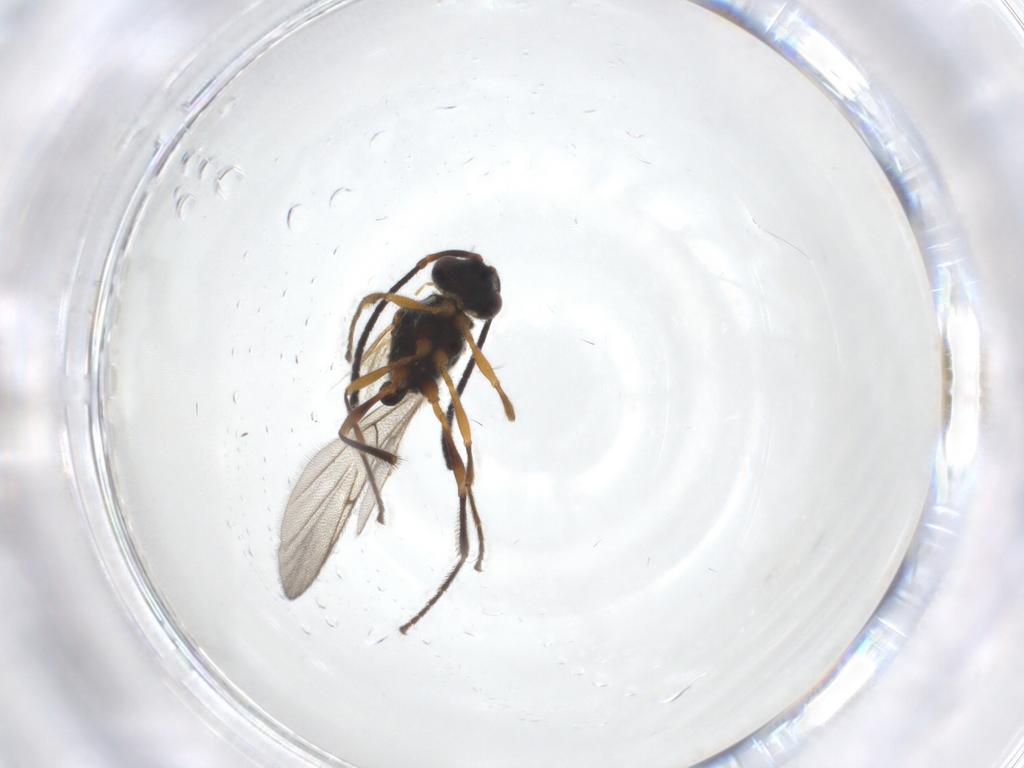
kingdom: Animalia
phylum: Arthropoda
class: Insecta
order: Hymenoptera
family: Diapriidae
